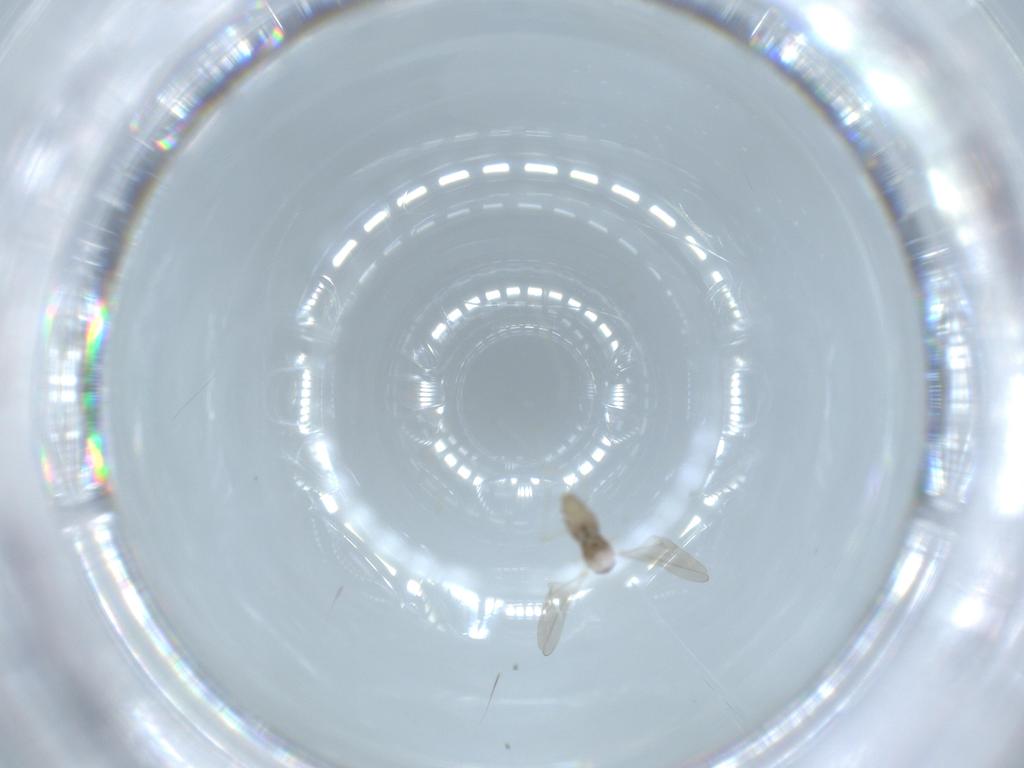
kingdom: Animalia
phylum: Arthropoda
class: Insecta
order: Diptera
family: Cecidomyiidae
